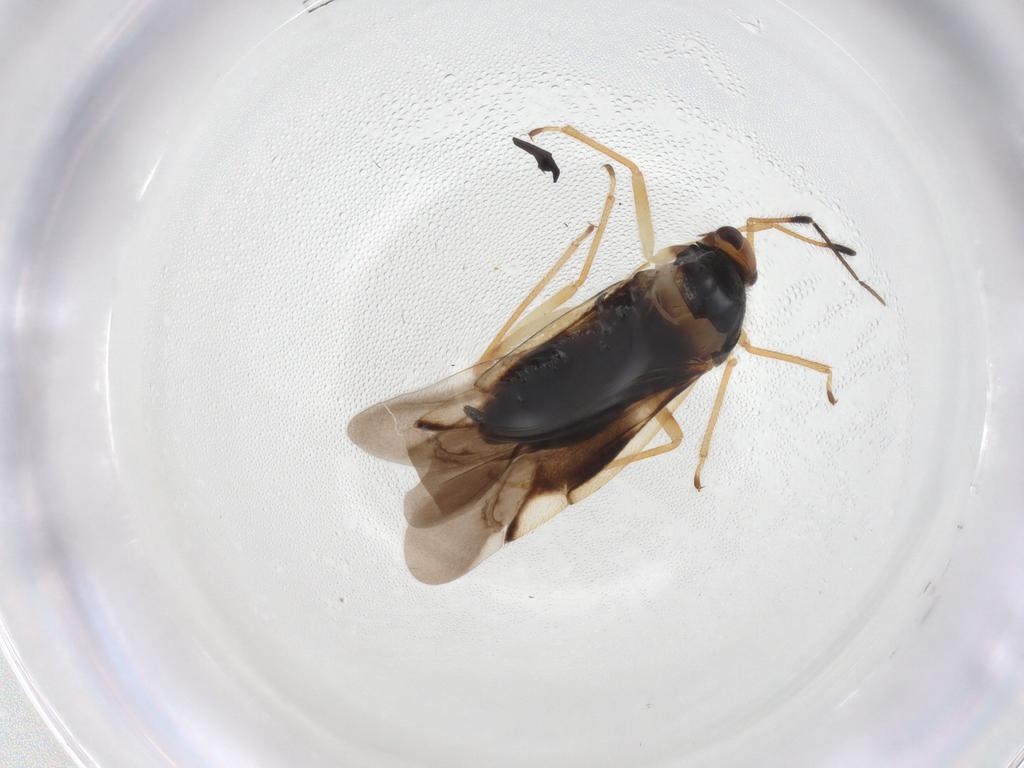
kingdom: Animalia
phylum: Arthropoda
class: Insecta
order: Hemiptera
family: Miridae
